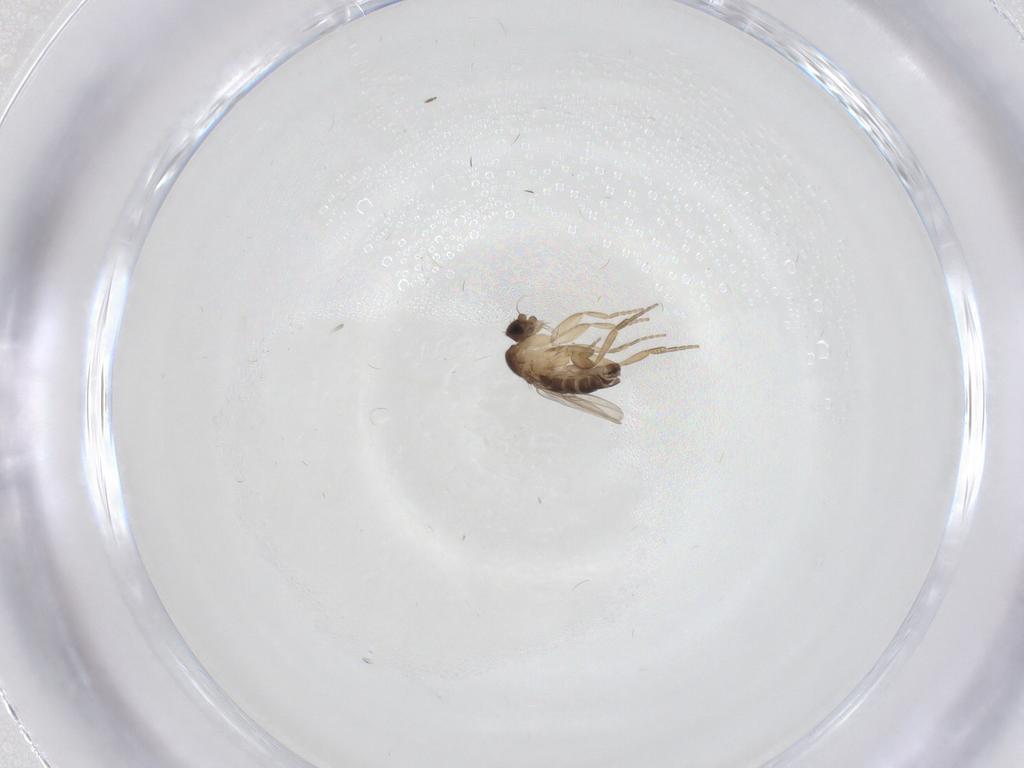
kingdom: Animalia
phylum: Arthropoda
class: Insecta
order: Diptera
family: Phoridae
